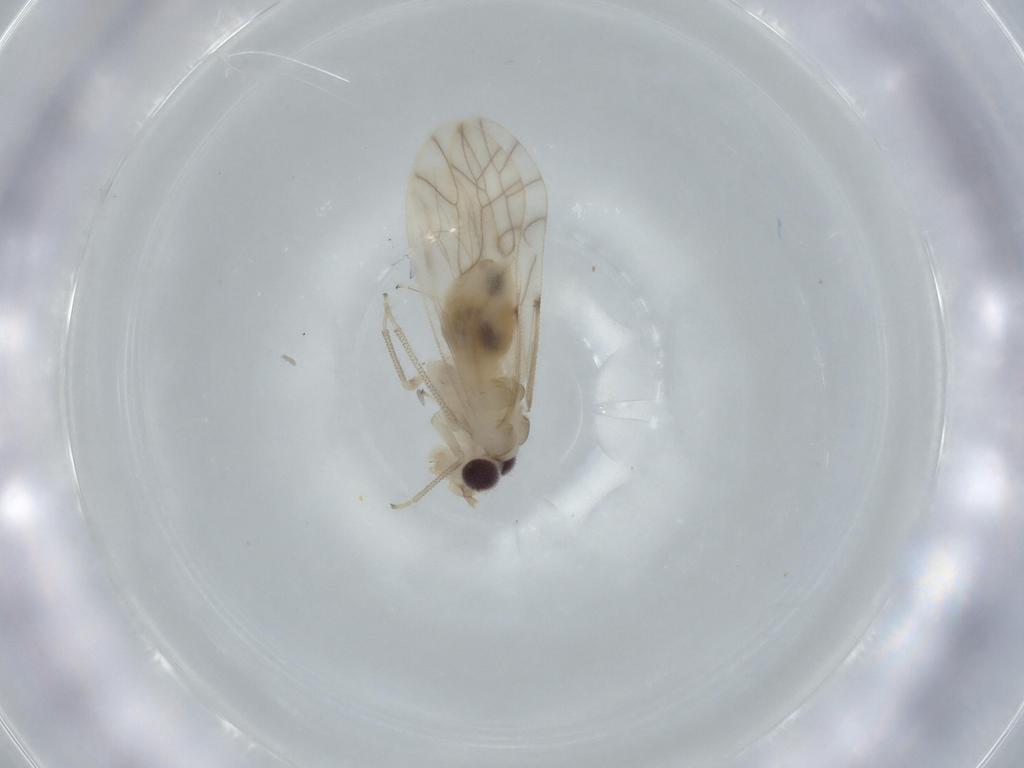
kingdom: Animalia
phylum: Arthropoda
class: Insecta
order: Psocodea
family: Caeciliusidae
